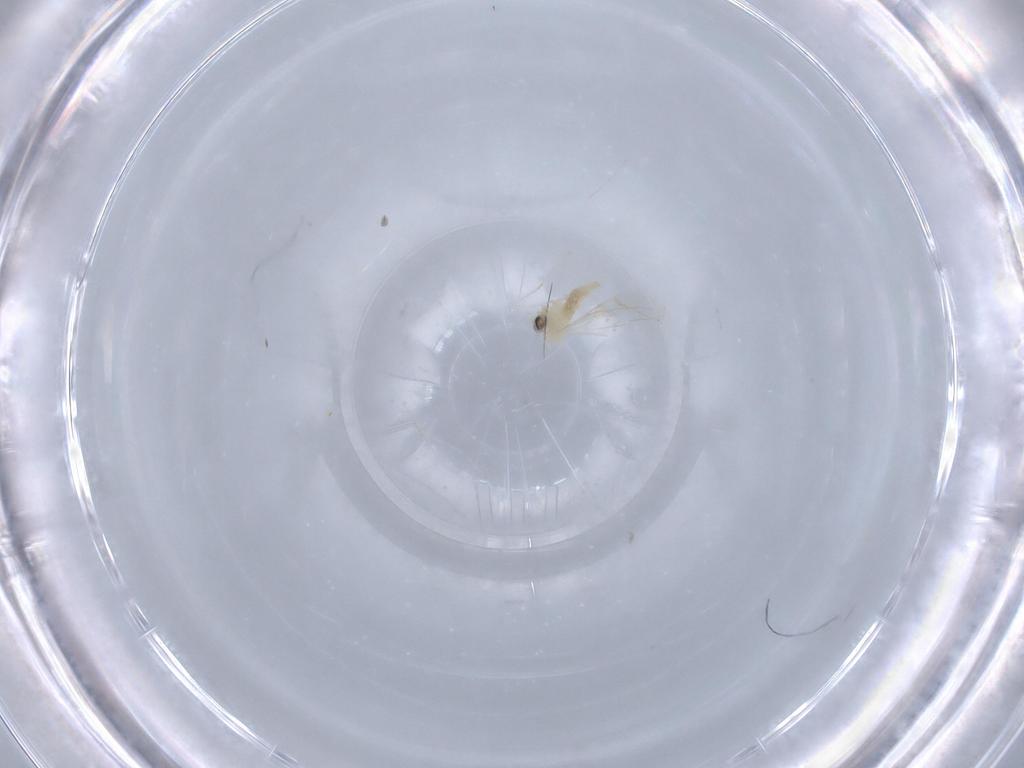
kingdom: Animalia
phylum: Arthropoda
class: Insecta
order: Diptera
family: Cecidomyiidae
